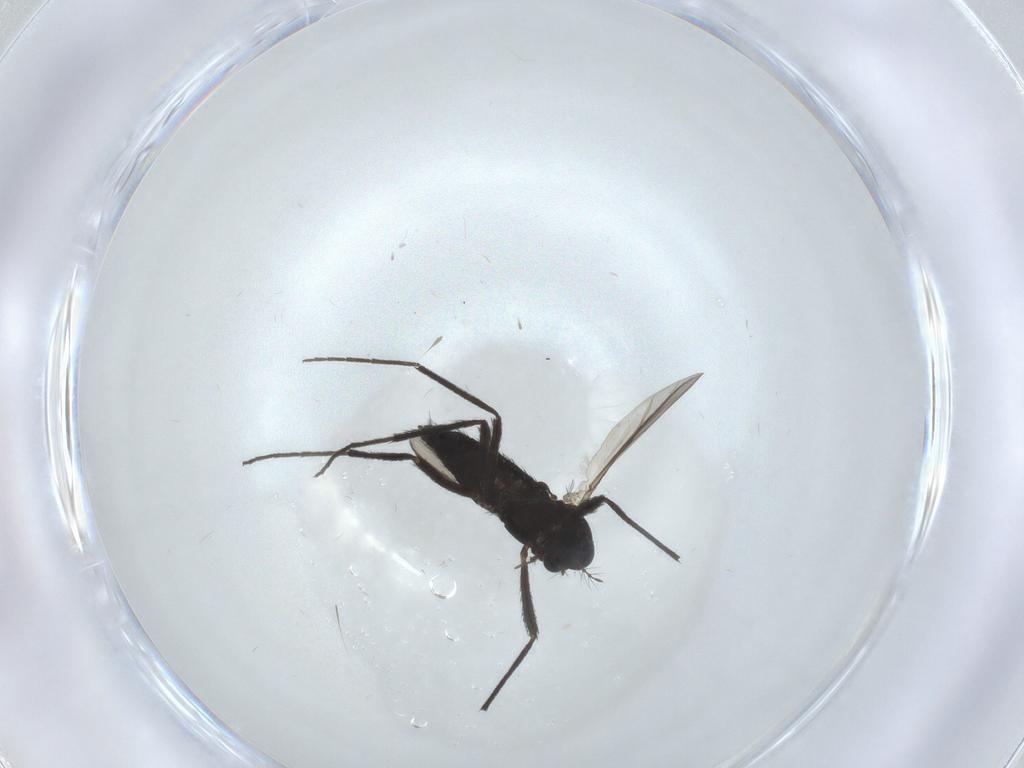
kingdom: Animalia
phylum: Arthropoda
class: Insecta
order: Diptera
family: Chironomidae
